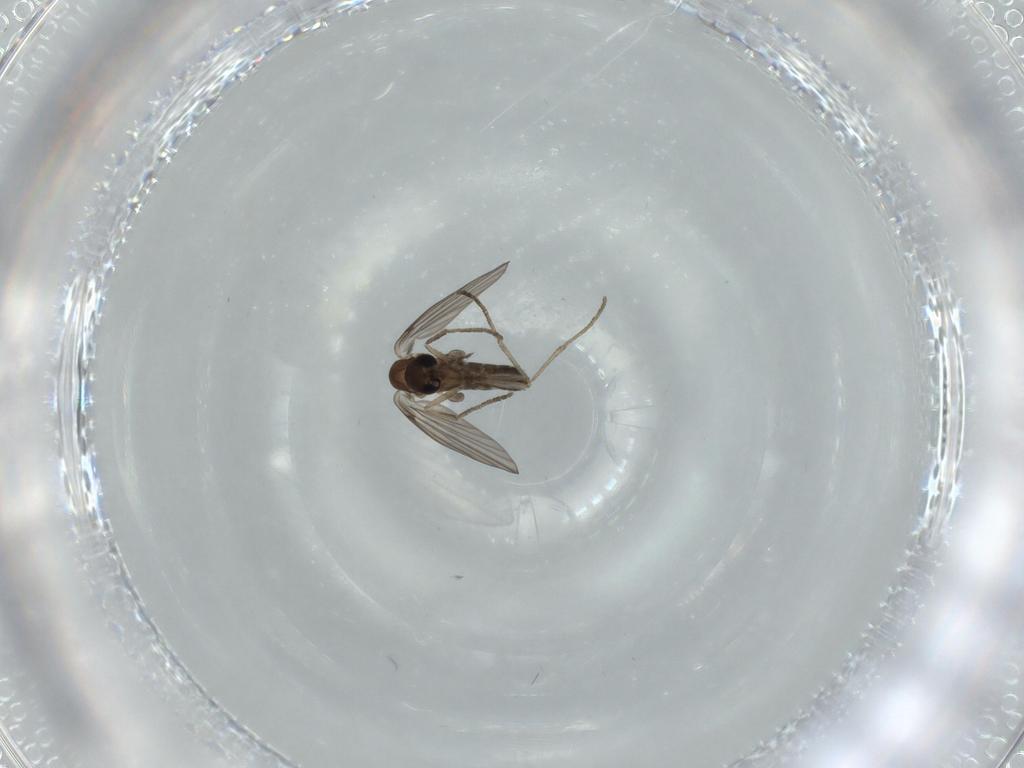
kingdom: Animalia
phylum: Arthropoda
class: Insecta
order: Diptera
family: Psychodidae
